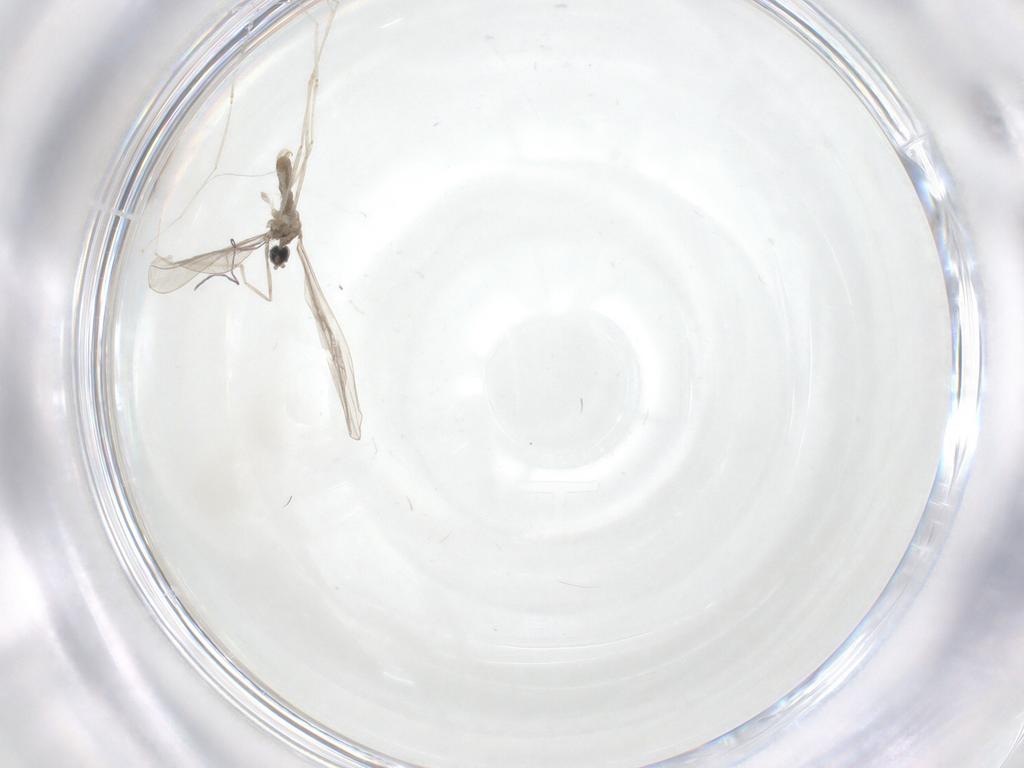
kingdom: Animalia
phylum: Arthropoda
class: Insecta
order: Diptera
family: Cecidomyiidae
